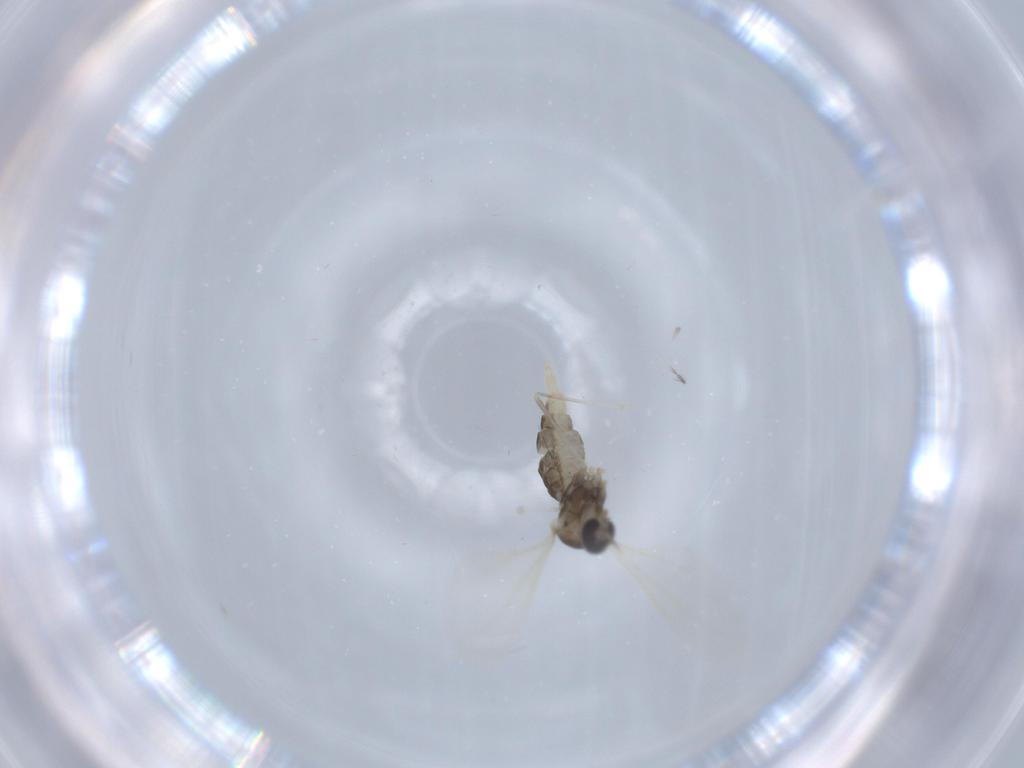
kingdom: Animalia
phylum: Arthropoda
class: Insecta
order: Diptera
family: Cecidomyiidae
